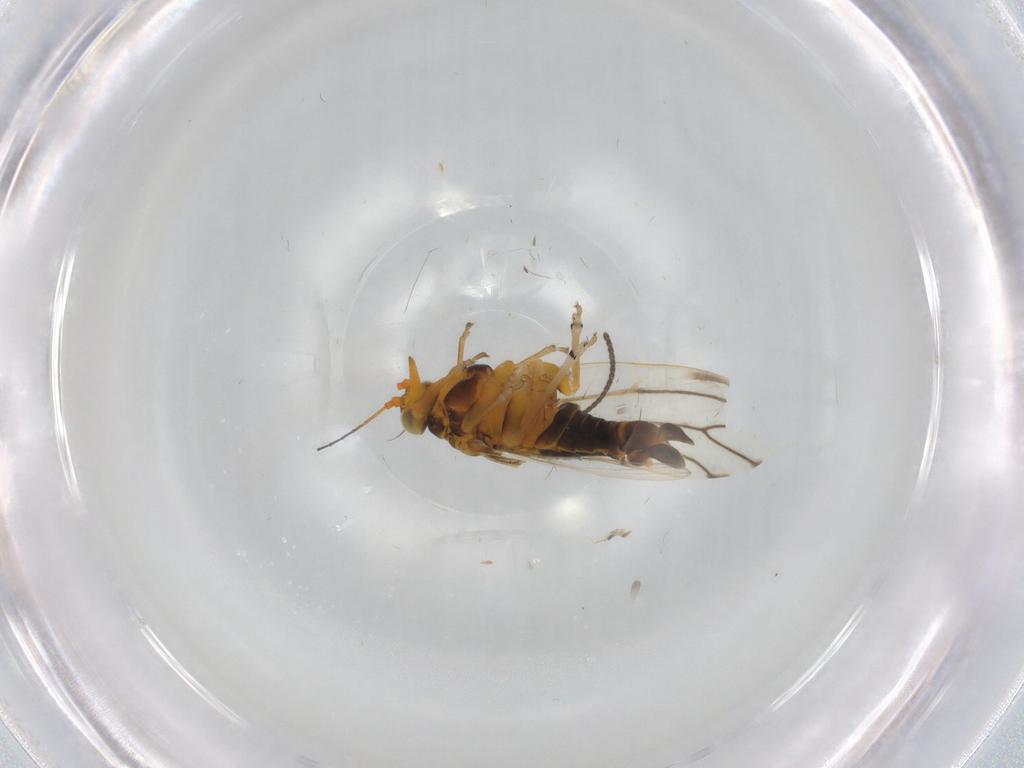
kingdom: Animalia
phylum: Arthropoda
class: Insecta
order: Hemiptera
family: Psylloidea_incertae_sedis
